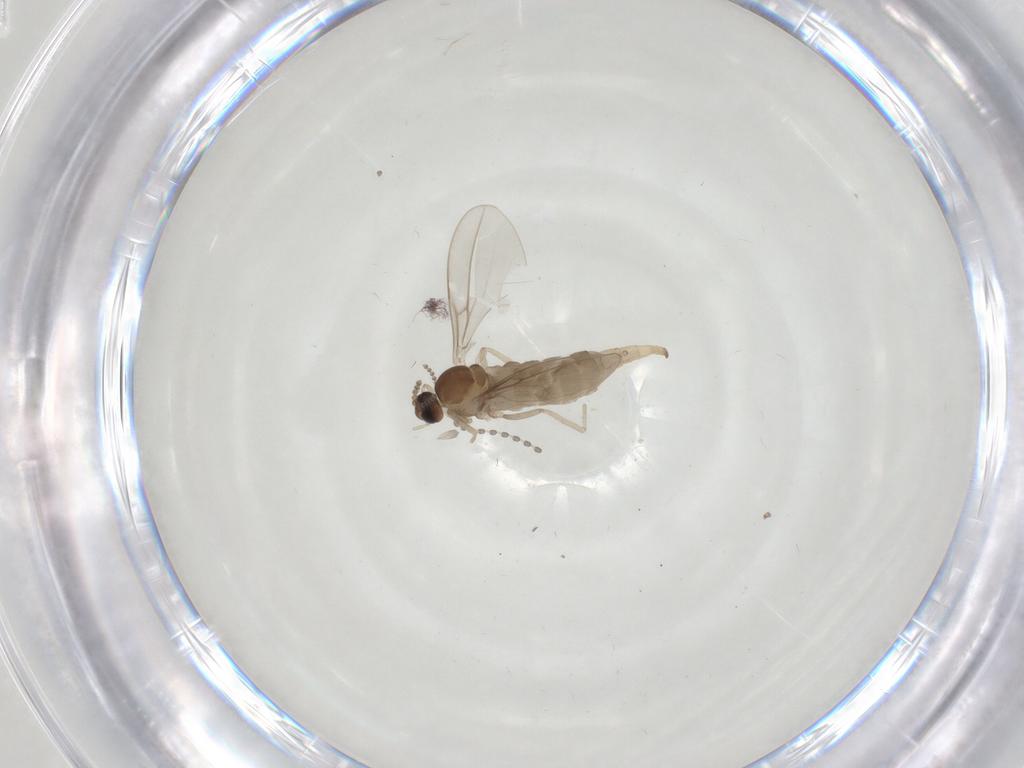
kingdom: Animalia
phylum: Arthropoda
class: Insecta
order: Diptera
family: Cecidomyiidae
